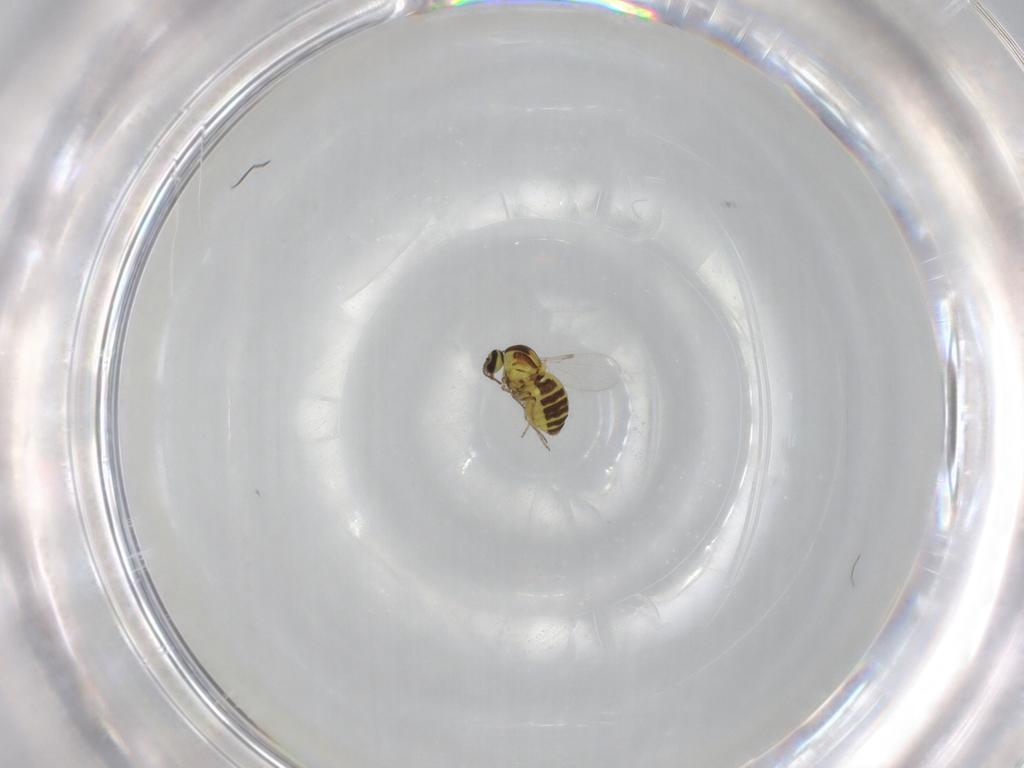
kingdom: Animalia
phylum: Arthropoda
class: Insecta
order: Diptera
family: Ceratopogonidae
